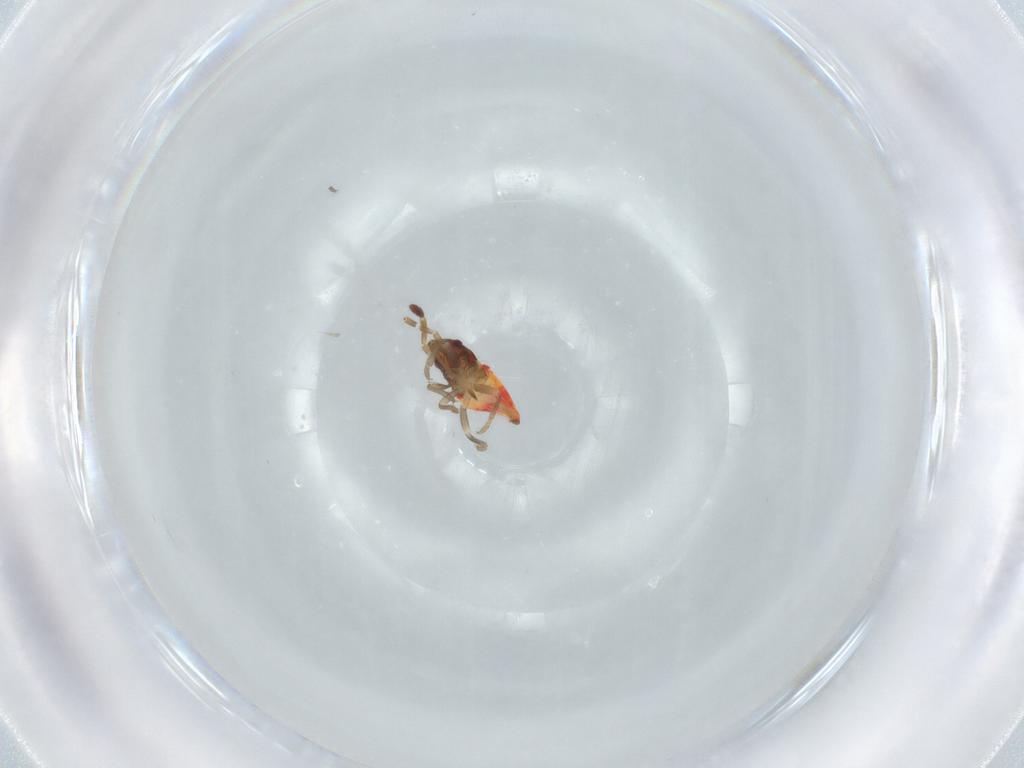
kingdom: Animalia
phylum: Arthropoda
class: Insecta
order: Hemiptera
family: Rhyparochromidae
